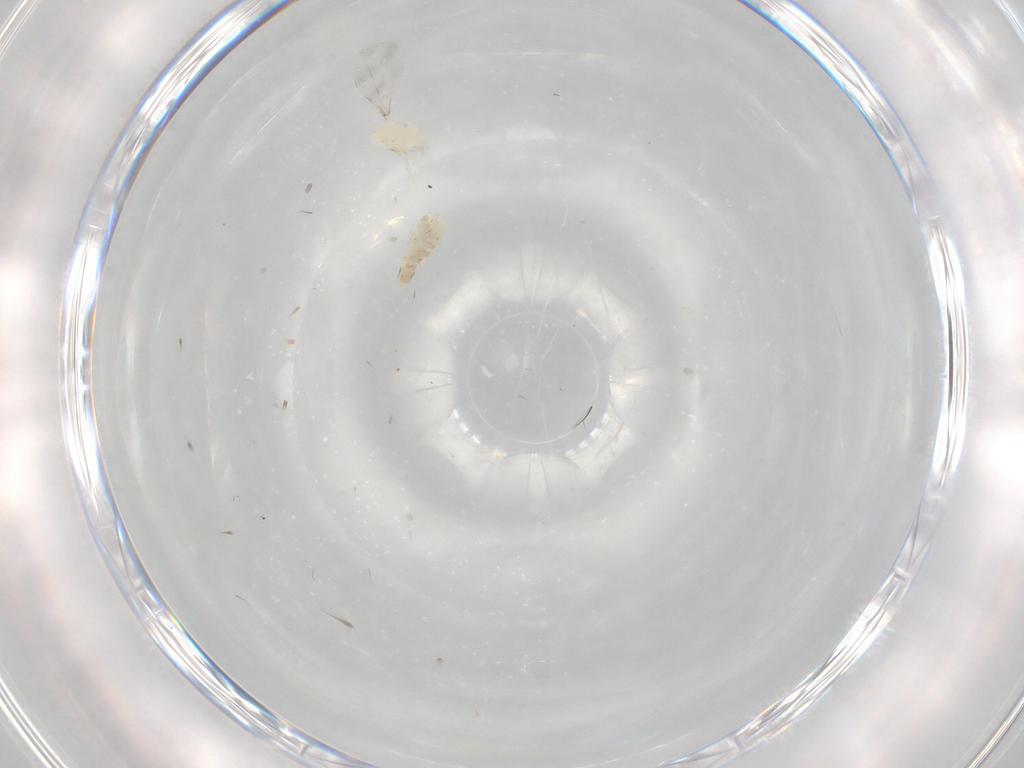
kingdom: Animalia
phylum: Arthropoda
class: Insecta
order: Diptera
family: Cecidomyiidae
